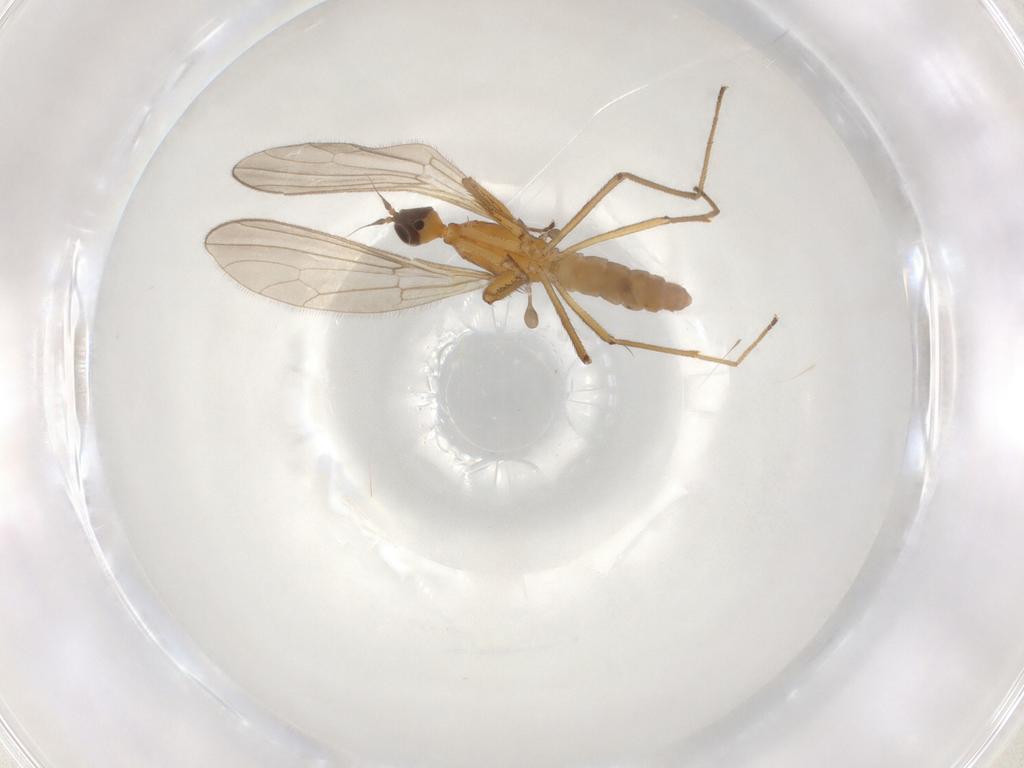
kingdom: Animalia
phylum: Arthropoda
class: Insecta
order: Diptera
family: Empididae
